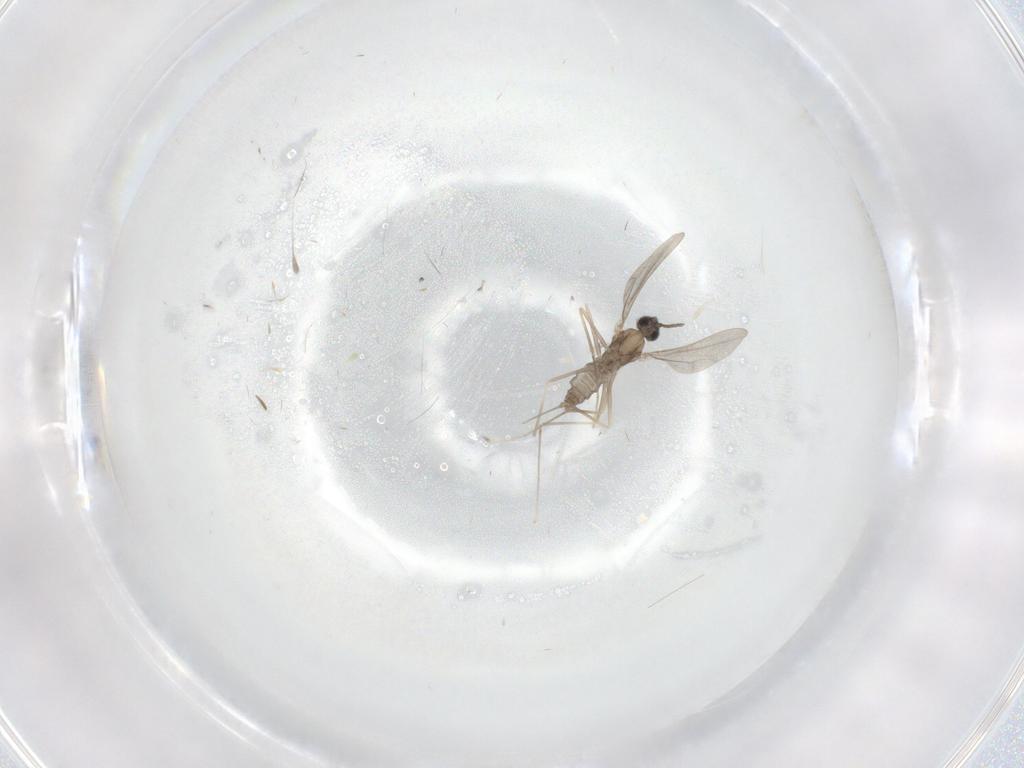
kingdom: Animalia
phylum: Arthropoda
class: Insecta
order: Diptera
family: Cecidomyiidae
